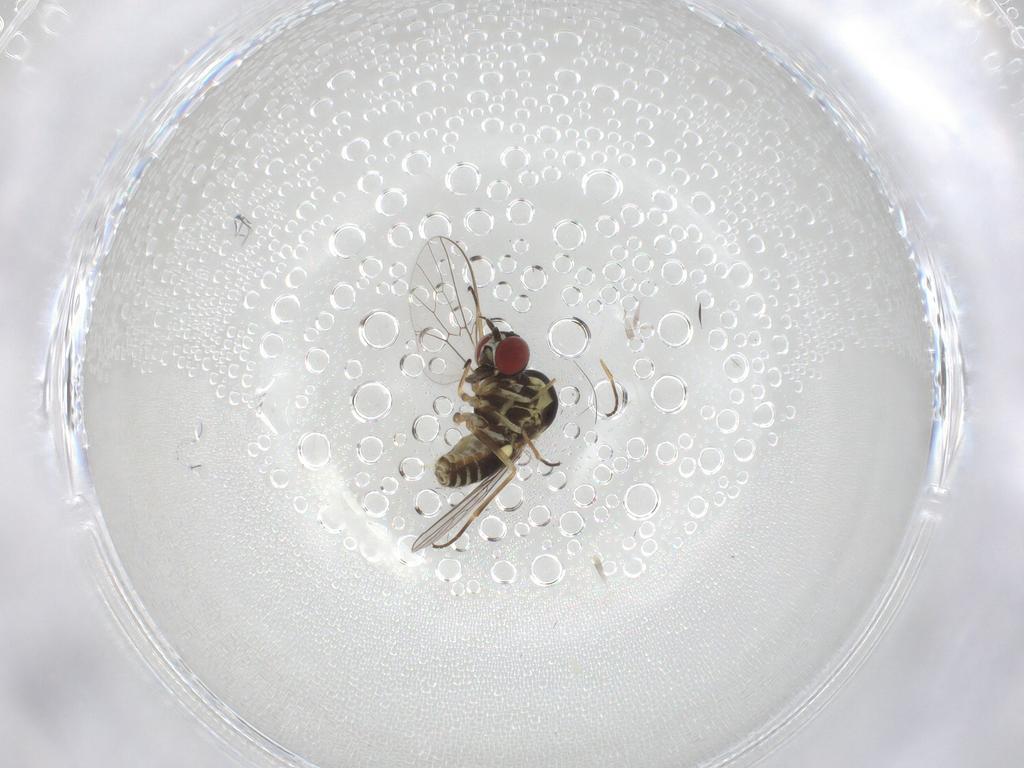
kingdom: Animalia
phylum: Arthropoda
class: Insecta
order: Diptera
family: Bombyliidae
